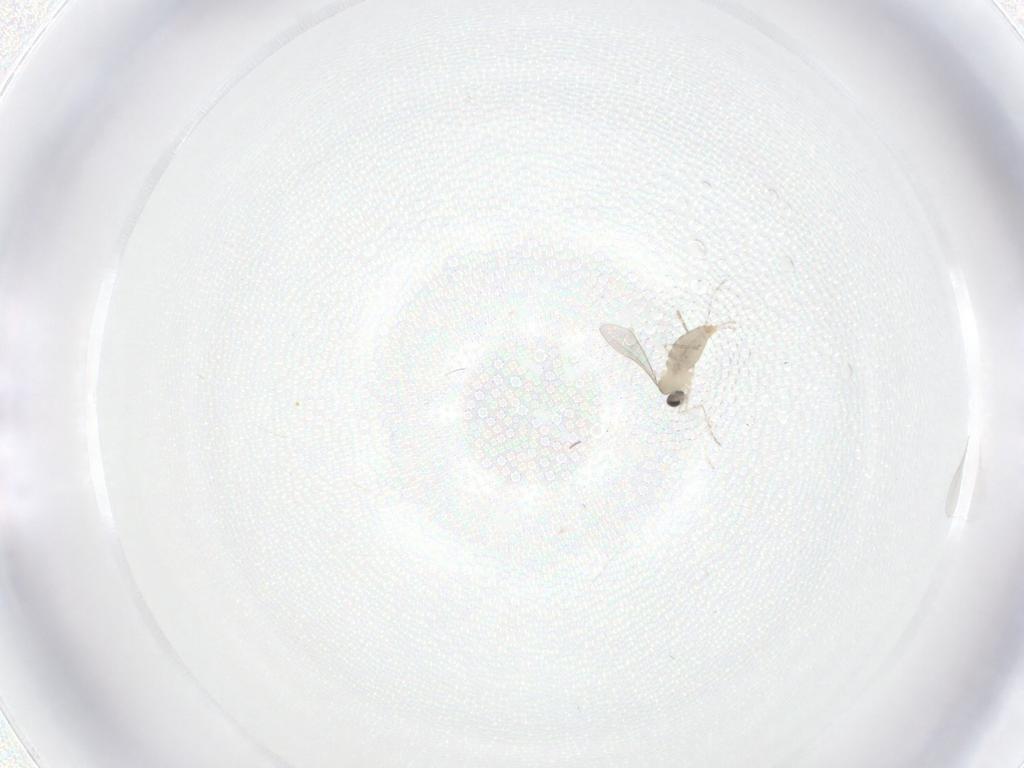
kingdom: Animalia
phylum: Arthropoda
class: Insecta
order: Diptera
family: Cecidomyiidae
